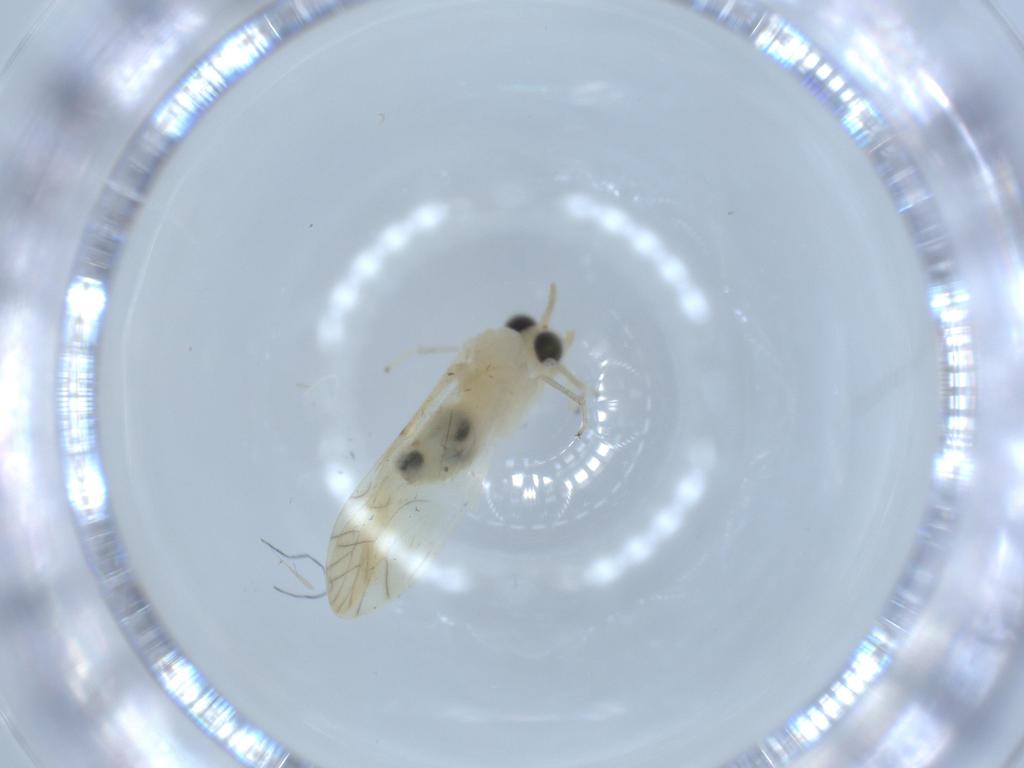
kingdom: Animalia
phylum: Arthropoda
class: Insecta
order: Psocodea
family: Caeciliusidae
